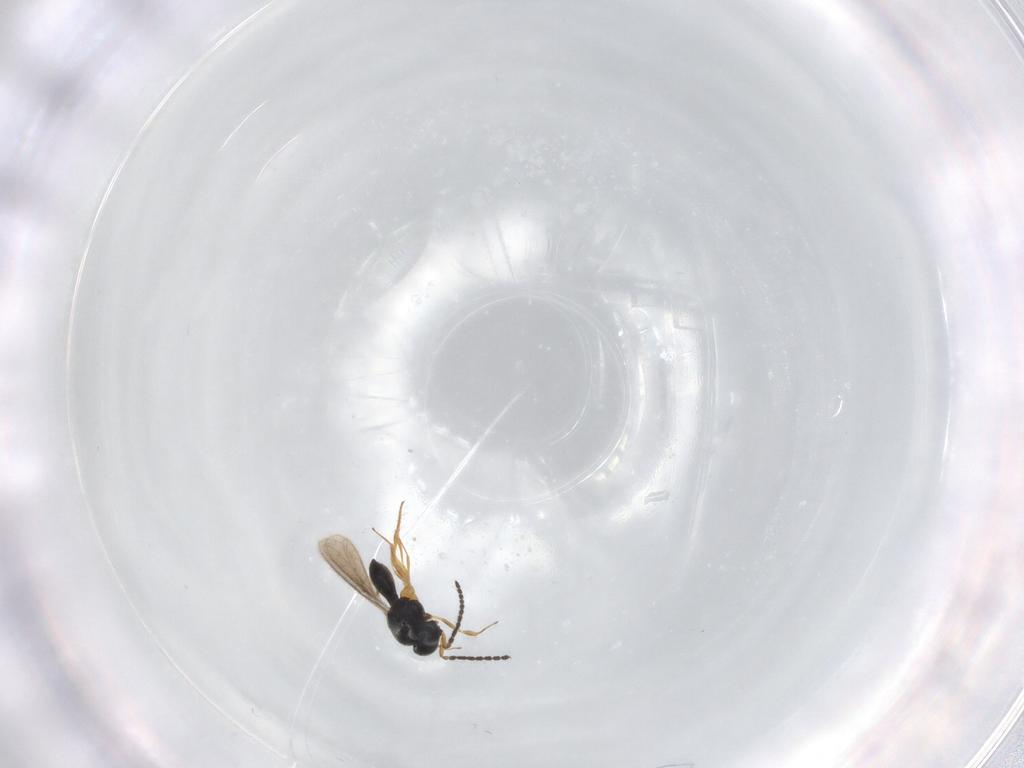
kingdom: Animalia
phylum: Arthropoda
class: Insecta
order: Hymenoptera
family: Scelionidae
